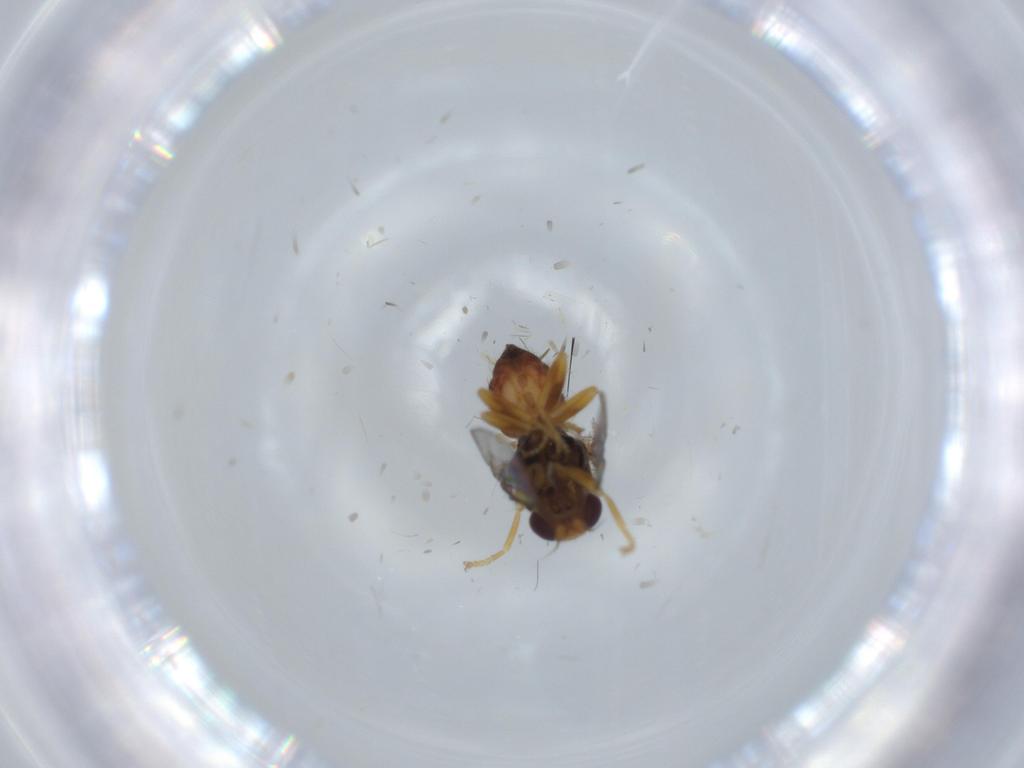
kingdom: Animalia
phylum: Arthropoda
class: Insecta
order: Diptera
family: Chloropidae
